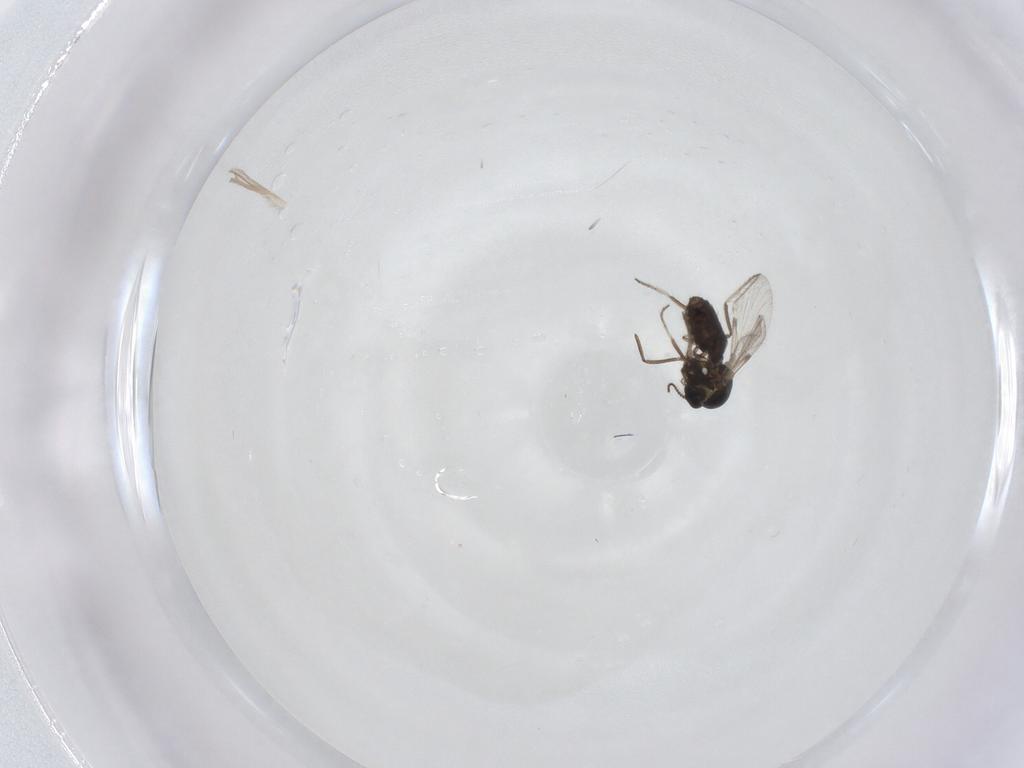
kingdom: Animalia
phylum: Arthropoda
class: Insecta
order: Diptera
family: Ceratopogonidae
